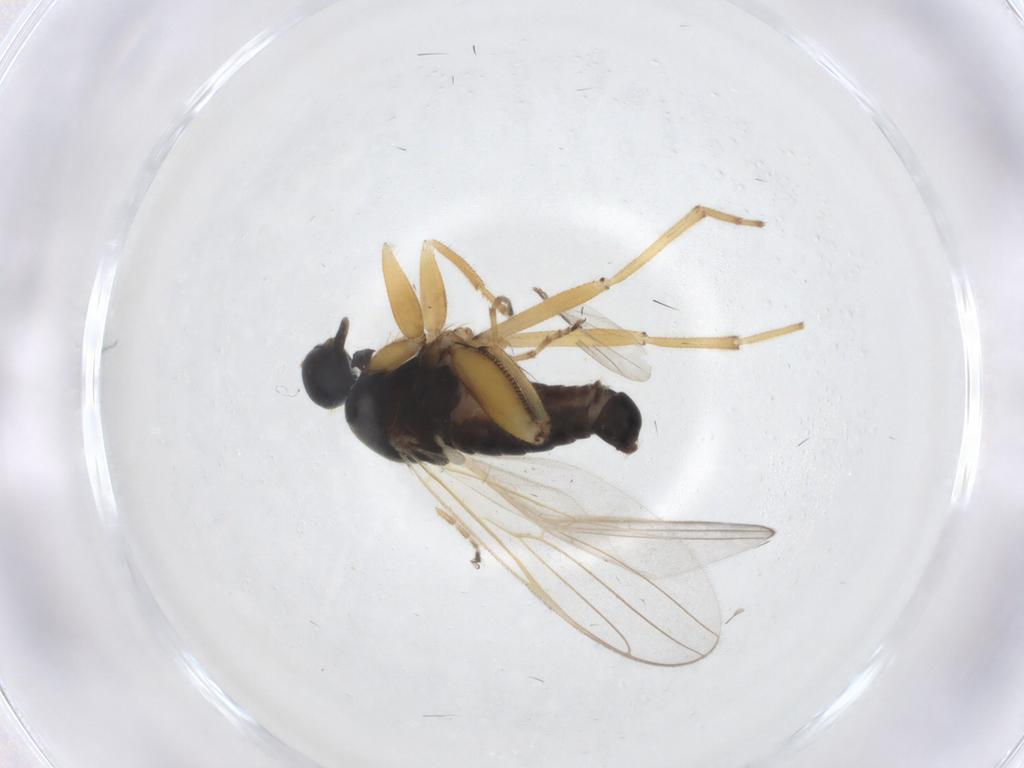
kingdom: Animalia
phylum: Arthropoda
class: Insecta
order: Diptera
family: Hybotidae
